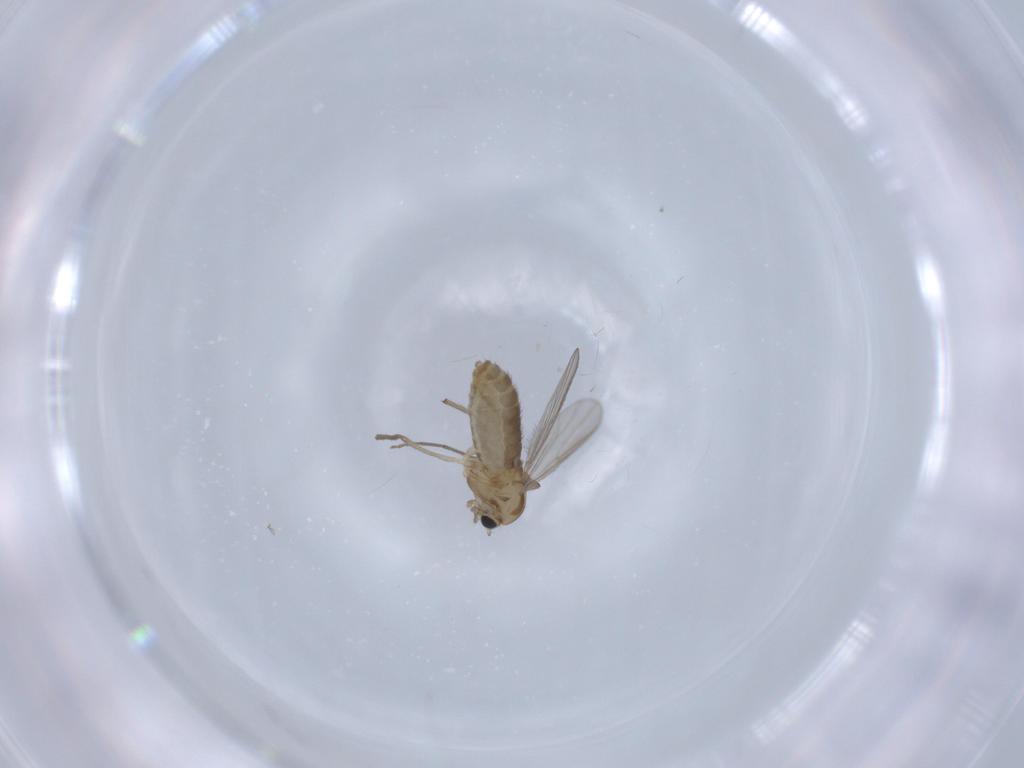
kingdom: Animalia
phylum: Arthropoda
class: Insecta
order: Diptera
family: Chironomidae
